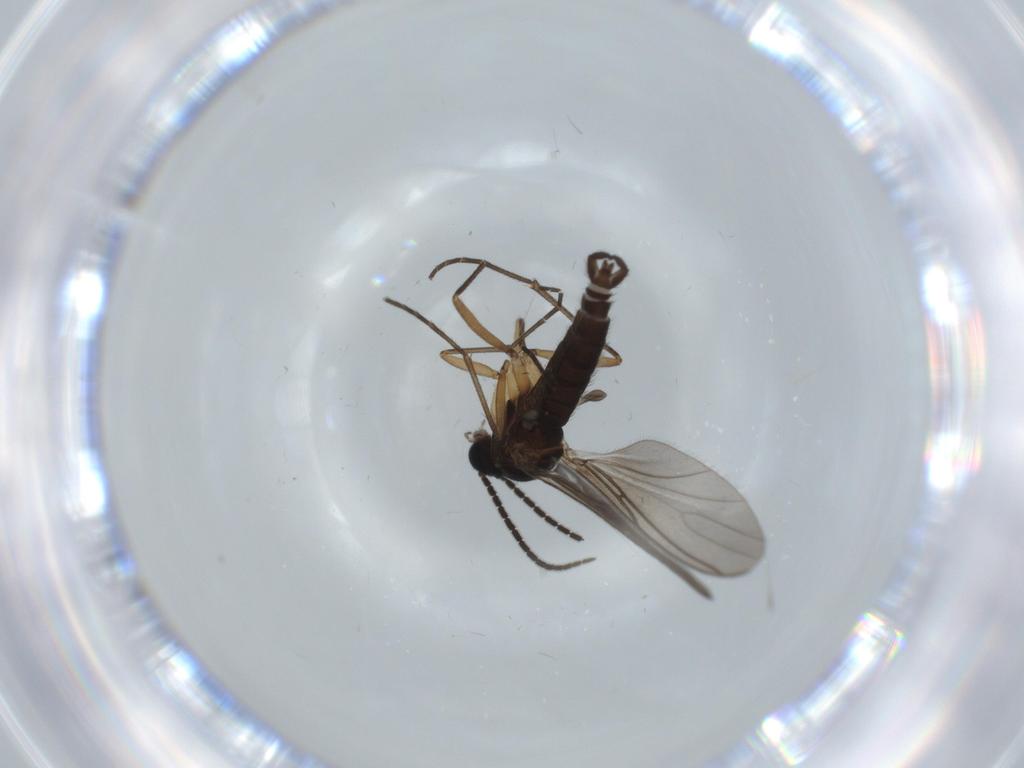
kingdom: Animalia
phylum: Arthropoda
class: Insecta
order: Diptera
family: Sciaridae
